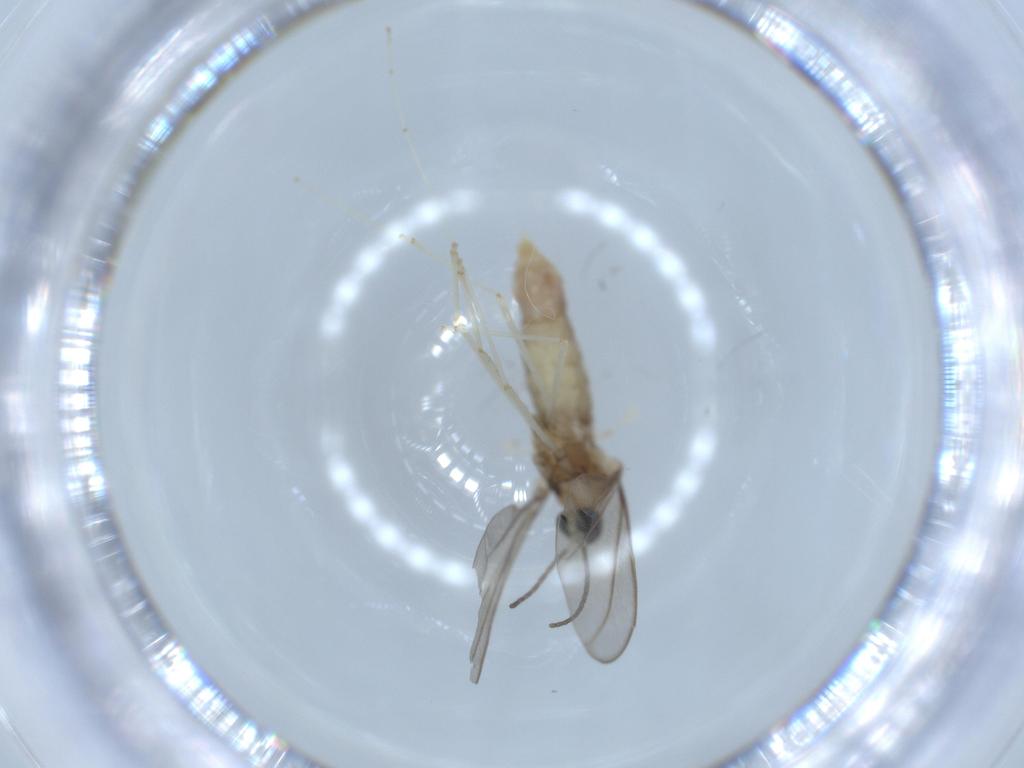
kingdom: Animalia
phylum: Arthropoda
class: Insecta
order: Diptera
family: Cecidomyiidae
